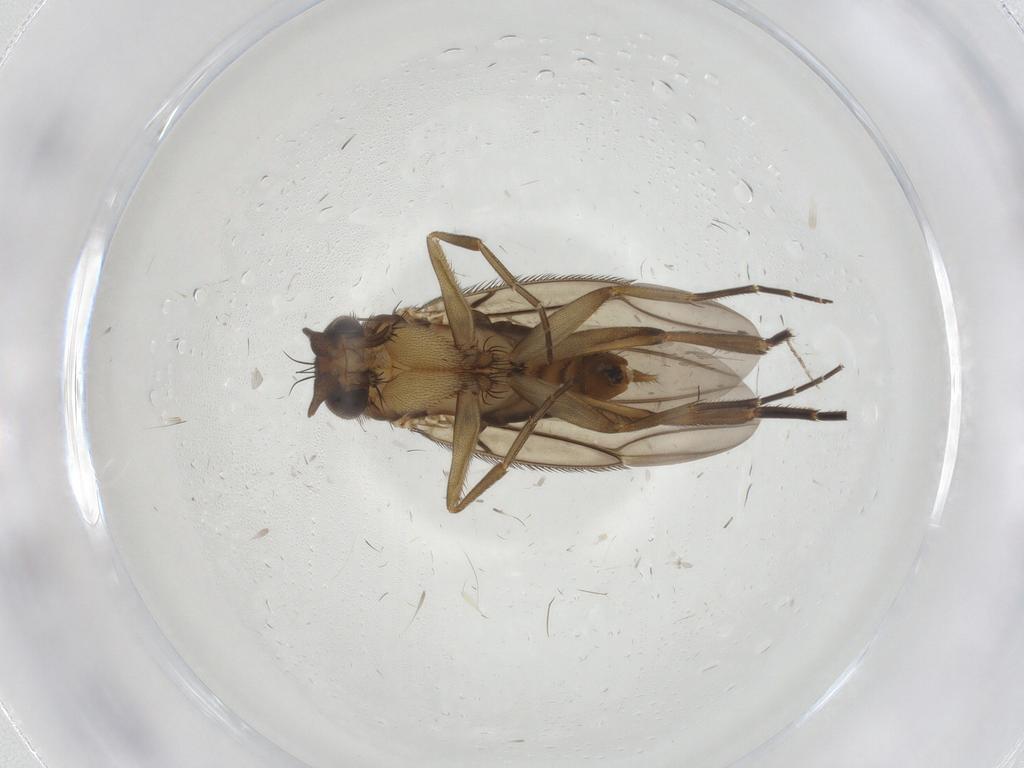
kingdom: Animalia
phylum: Arthropoda
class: Insecta
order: Diptera
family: Phoridae
